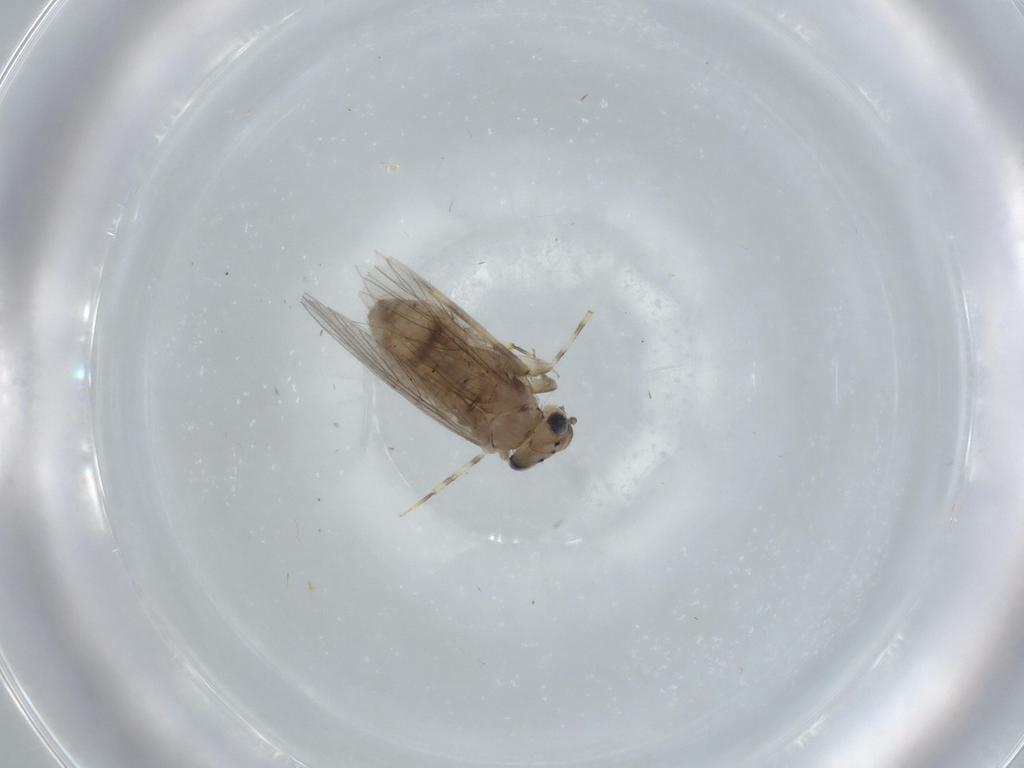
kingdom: Animalia
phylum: Arthropoda
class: Insecta
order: Psocodea
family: Lepidopsocidae
